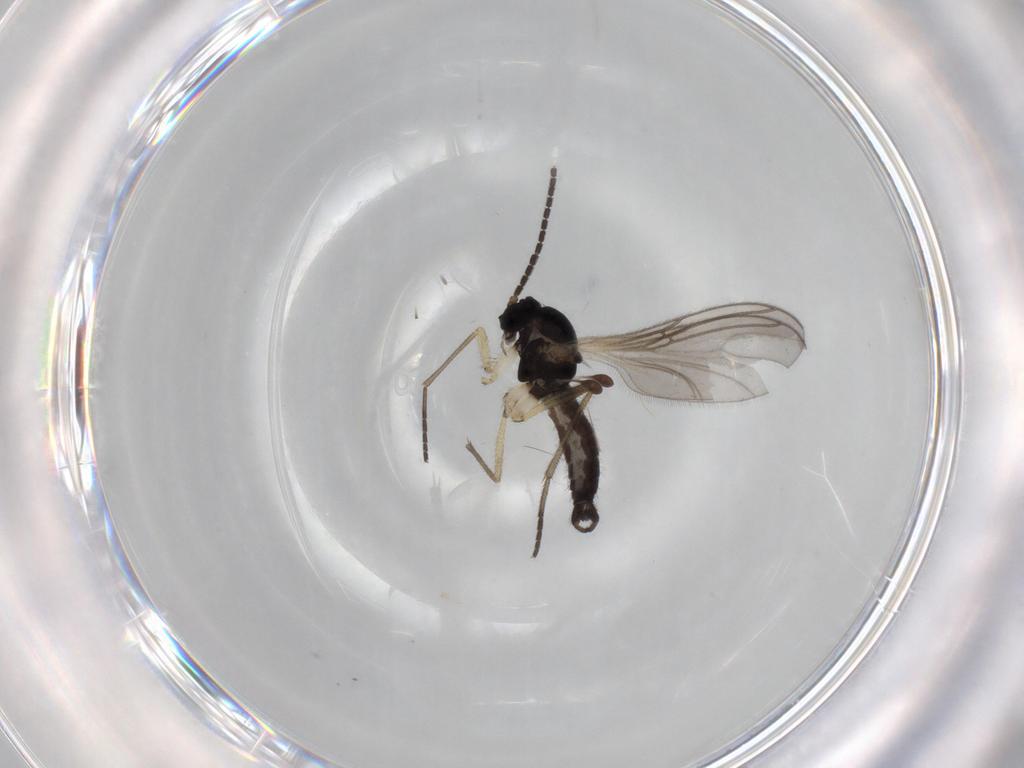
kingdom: Animalia
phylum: Arthropoda
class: Insecta
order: Diptera
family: Sciaridae
